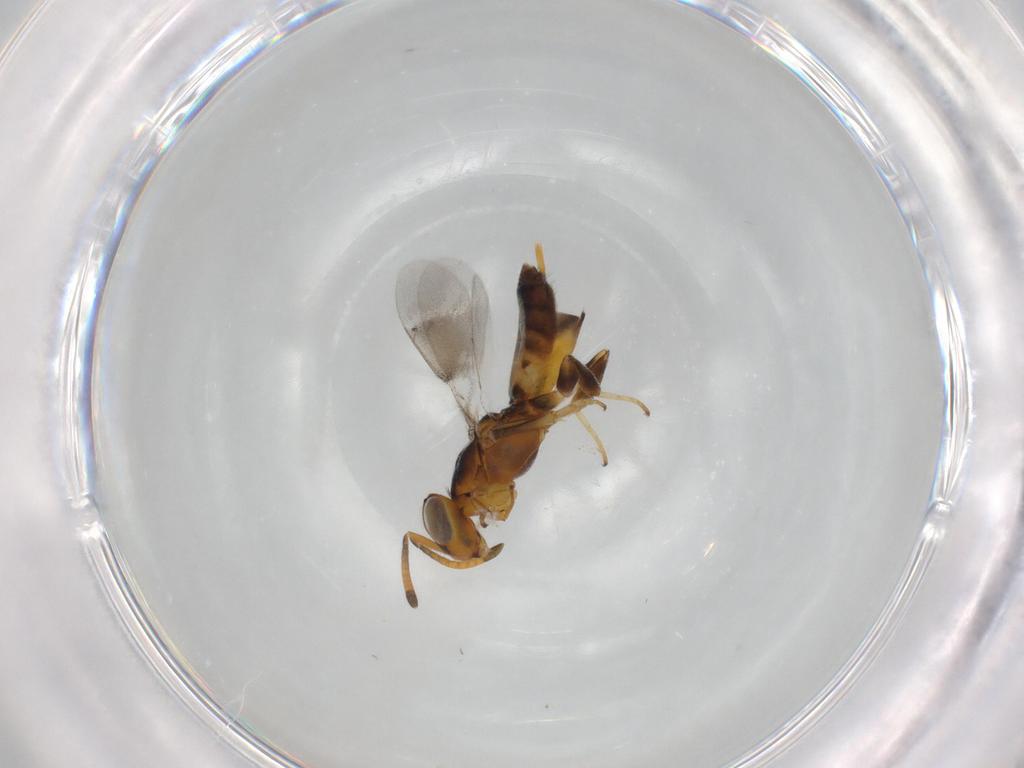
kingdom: Animalia
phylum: Arthropoda
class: Insecta
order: Hymenoptera
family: Eupelmidae
